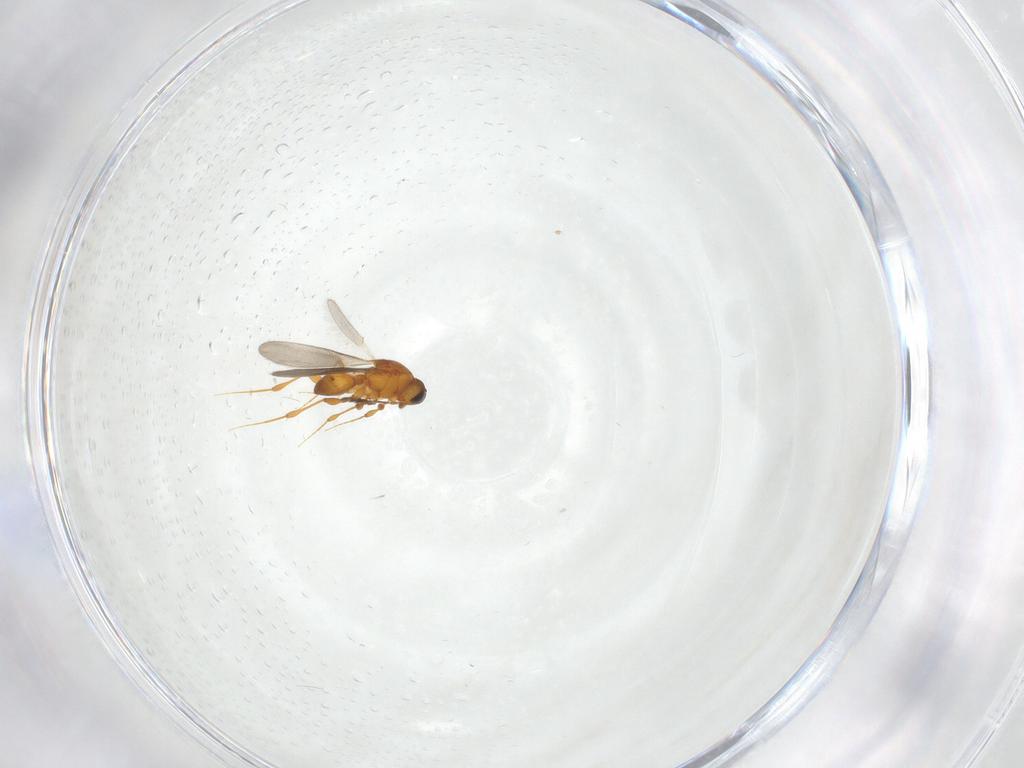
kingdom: Animalia
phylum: Arthropoda
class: Insecta
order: Hymenoptera
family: Platygastridae
